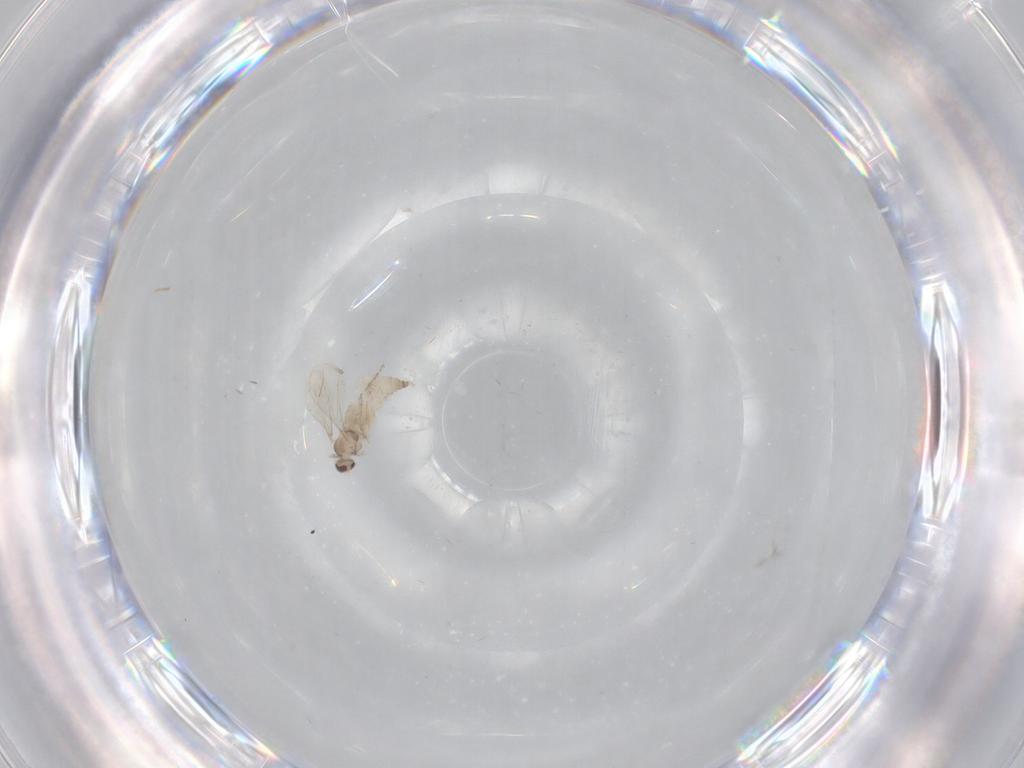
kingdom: Animalia
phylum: Arthropoda
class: Insecta
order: Diptera
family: Cecidomyiidae
